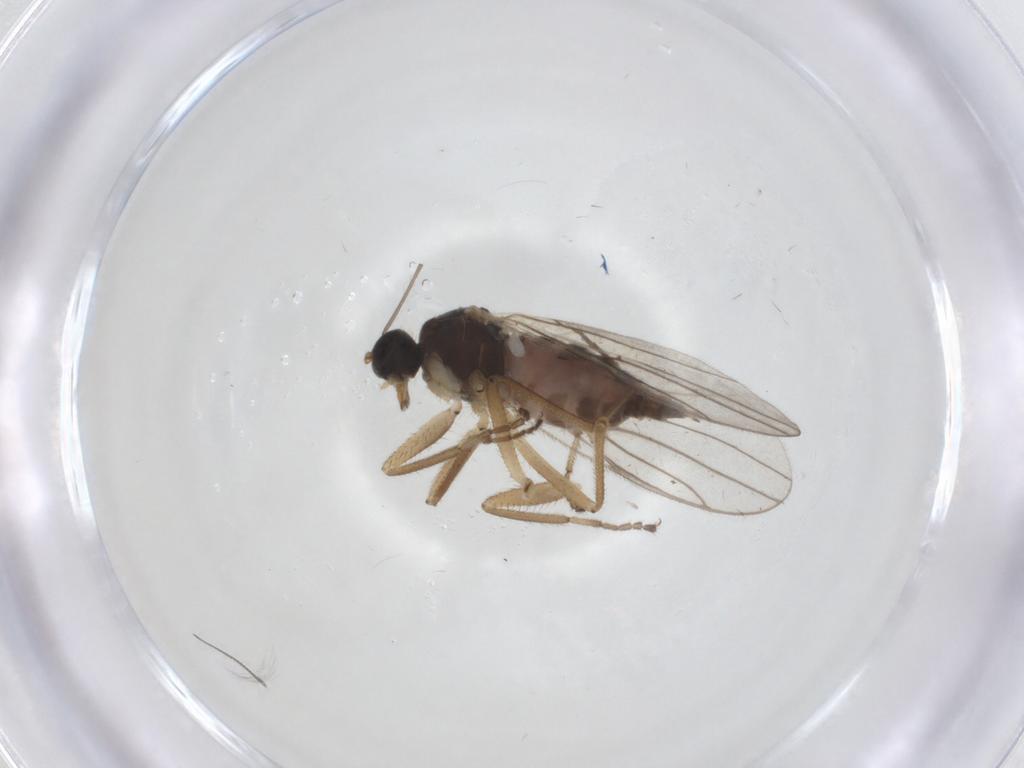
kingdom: Animalia
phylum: Arthropoda
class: Insecta
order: Diptera
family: Hybotidae
